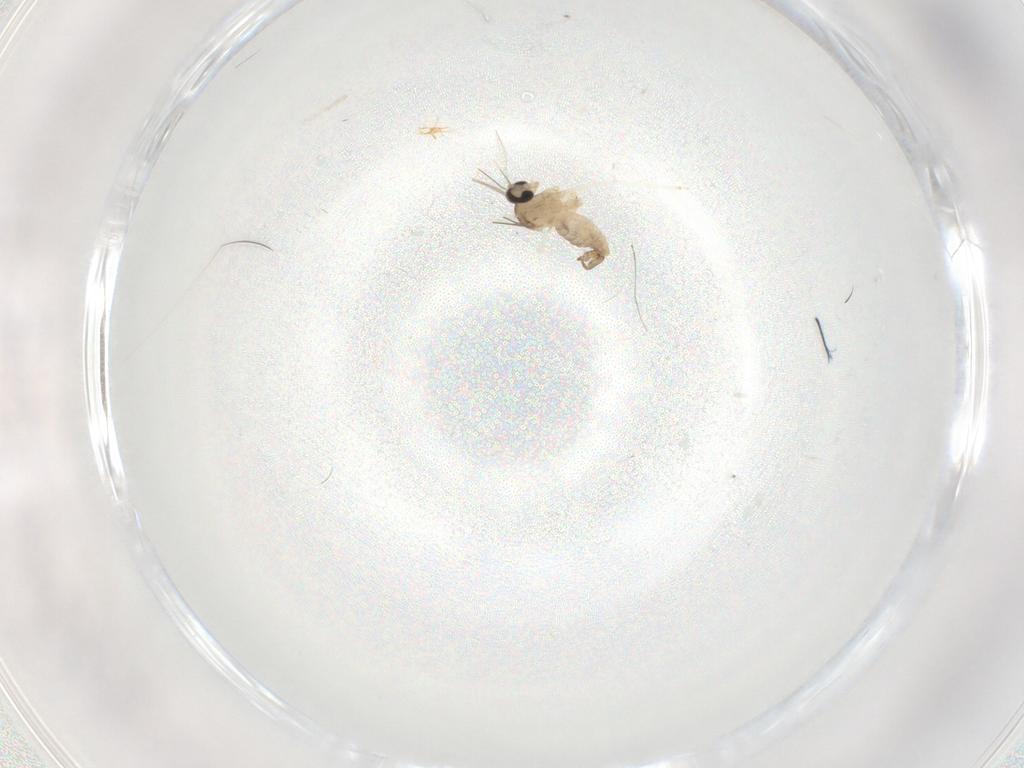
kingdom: Animalia
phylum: Arthropoda
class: Insecta
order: Diptera
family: Cecidomyiidae
